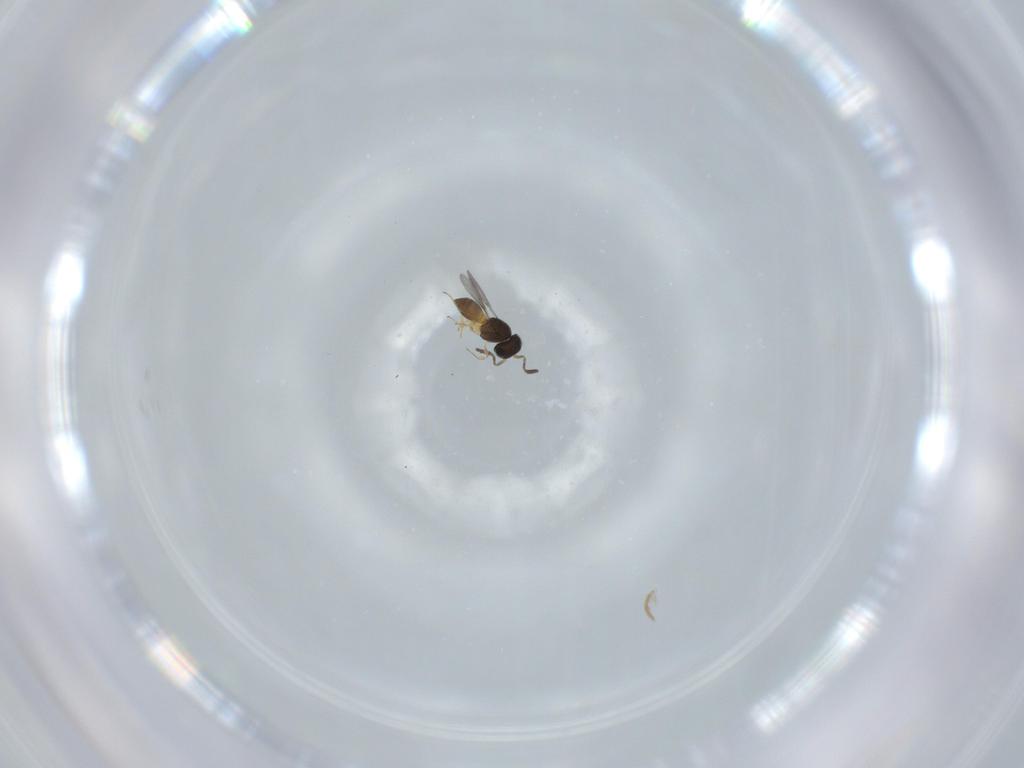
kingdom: Animalia
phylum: Arthropoda
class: Insecta
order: Hymenoptera
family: Scelionidae
